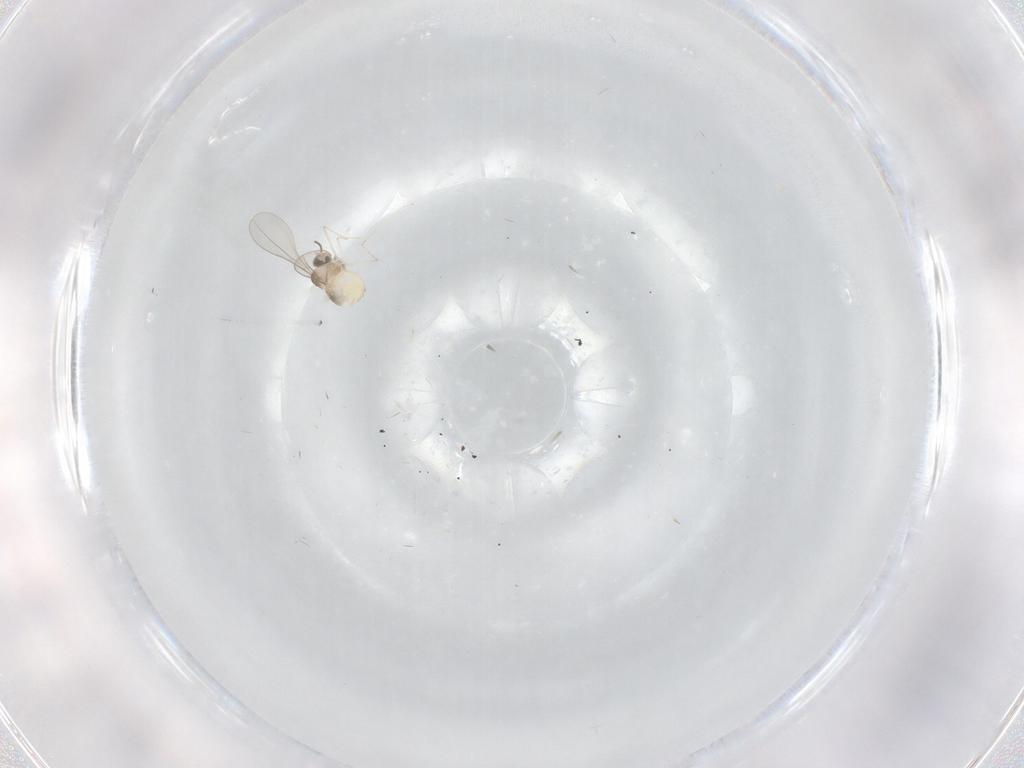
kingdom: Animalia
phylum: Arthropoda
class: Insecta
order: Diptera
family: Cecidomyiidae
